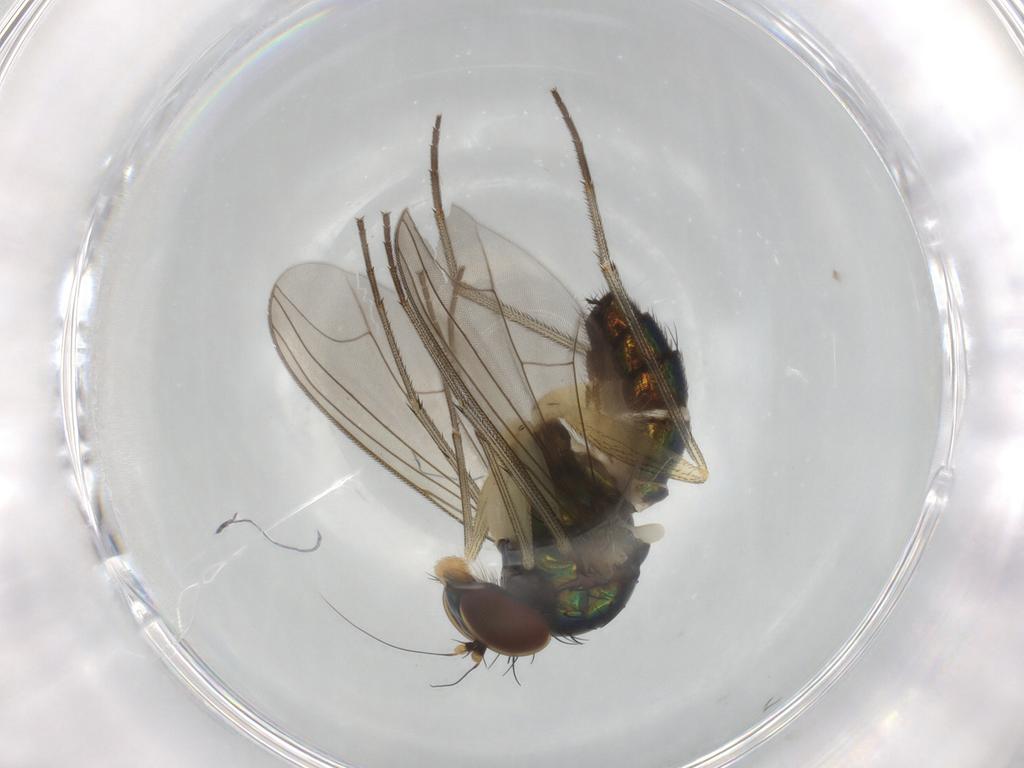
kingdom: Animalia
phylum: Arthropoda
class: Insecta
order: Diptera
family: Dolichopodidae
